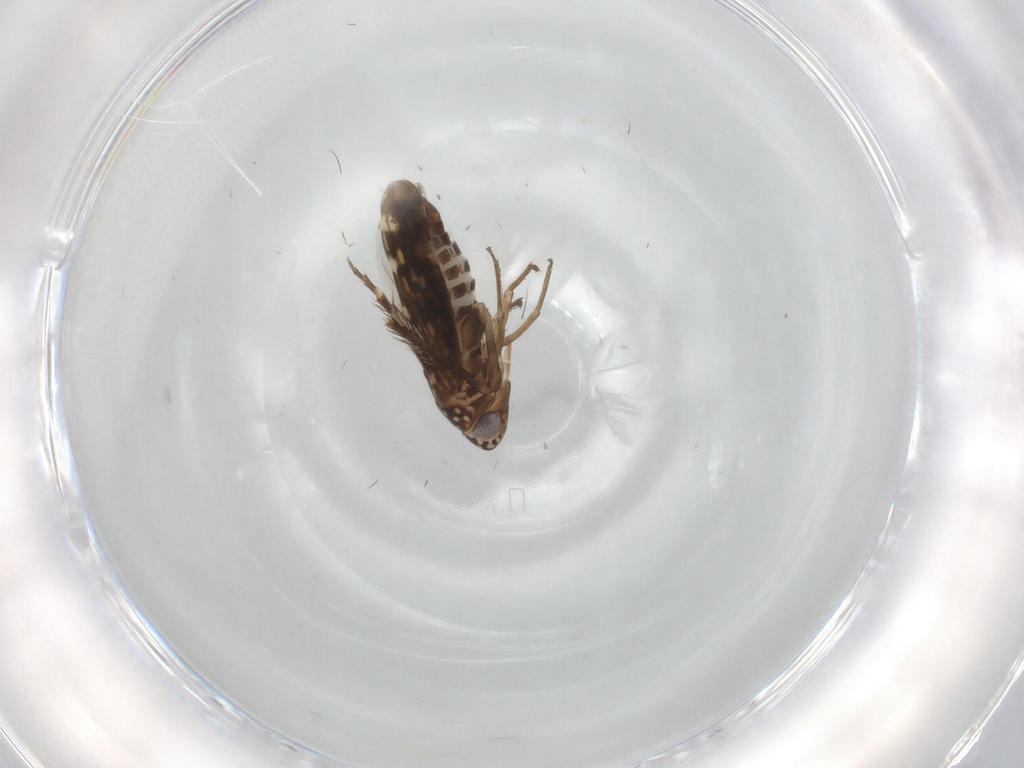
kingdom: Animalia
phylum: Arthropoda
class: Insecta
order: Hemiptera
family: Cicadellidae
